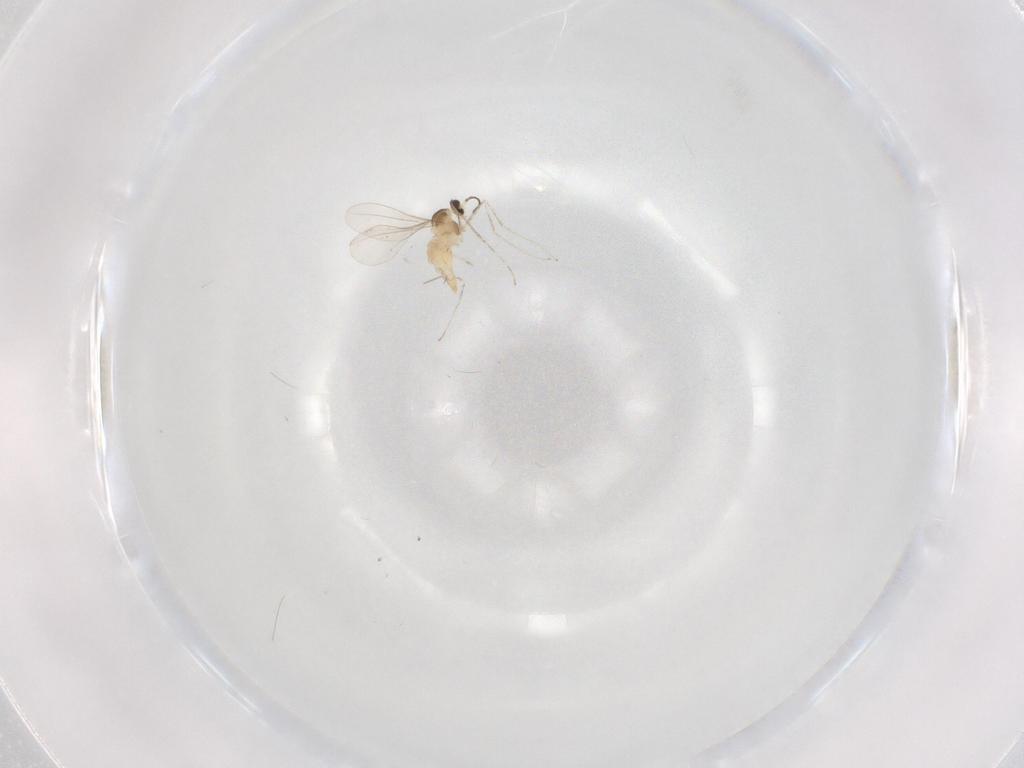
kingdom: Animalia
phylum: Arthropoda
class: Insecta
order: Diptera
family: Cecidomyiidae
